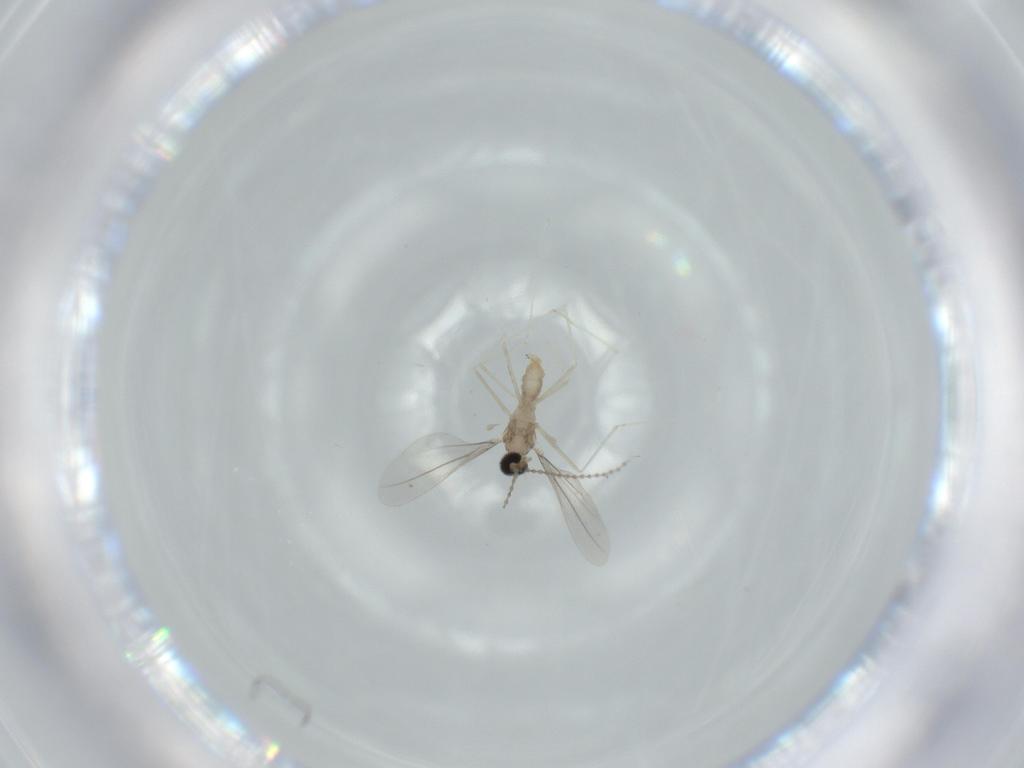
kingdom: Animalia
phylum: Arthropoda
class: Insecta
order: Diptera
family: Cecidomyiidae
